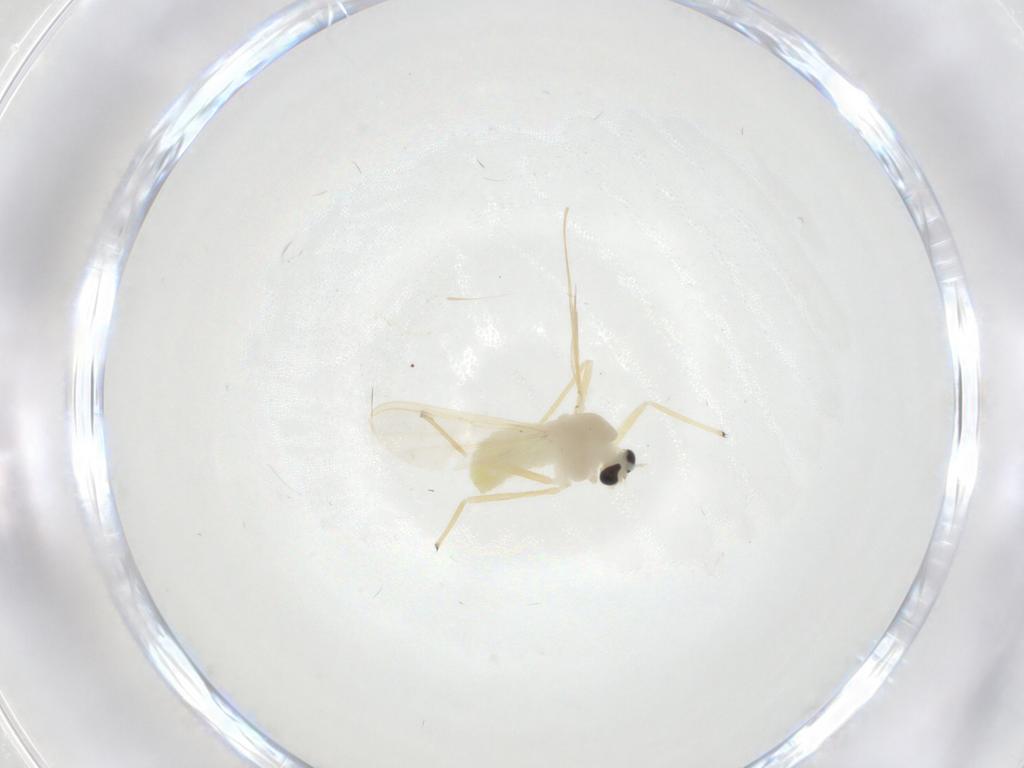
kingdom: Animalia
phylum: Arthropoda
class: Insecta
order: Diptera
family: Chironomidae
